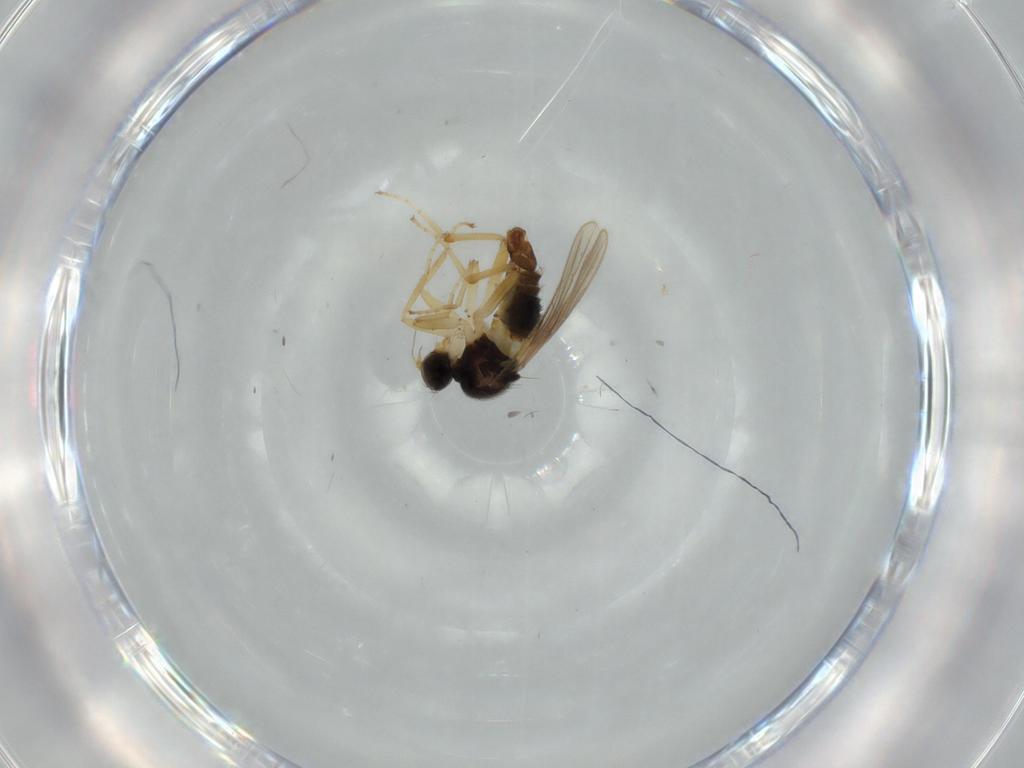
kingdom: Animalia
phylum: Arthropoda
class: Insecta
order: Diptera
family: Hybotidae
